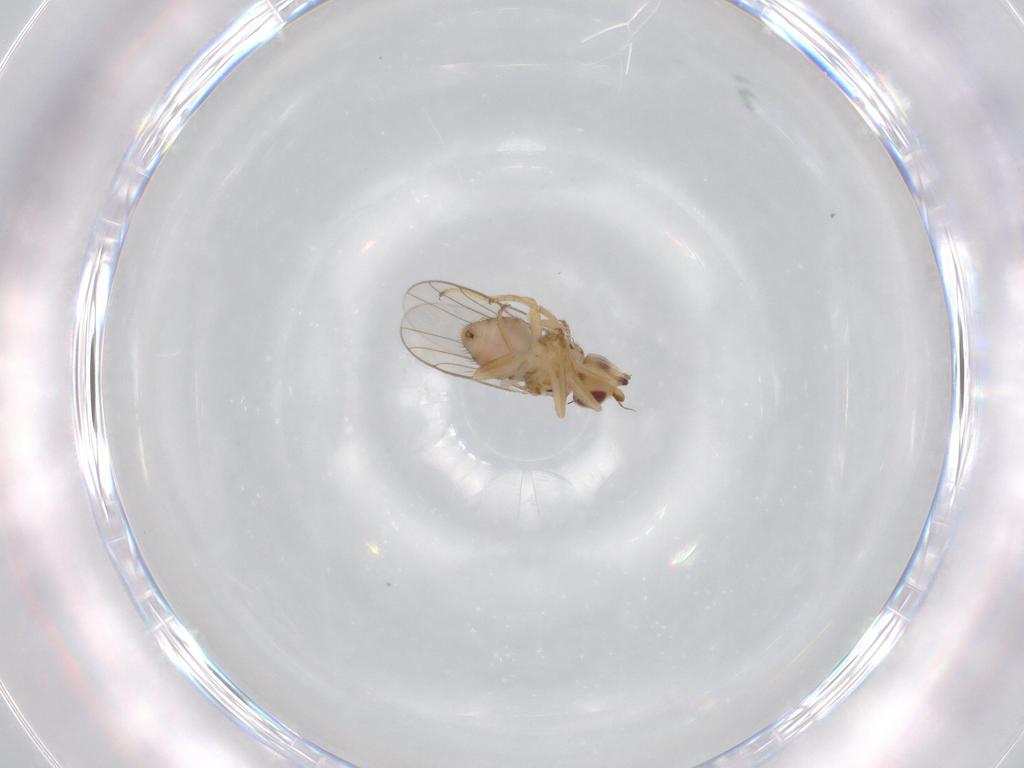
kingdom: Animalia
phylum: Arthropoda
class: Insecta
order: Diptera
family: Chloropidae
